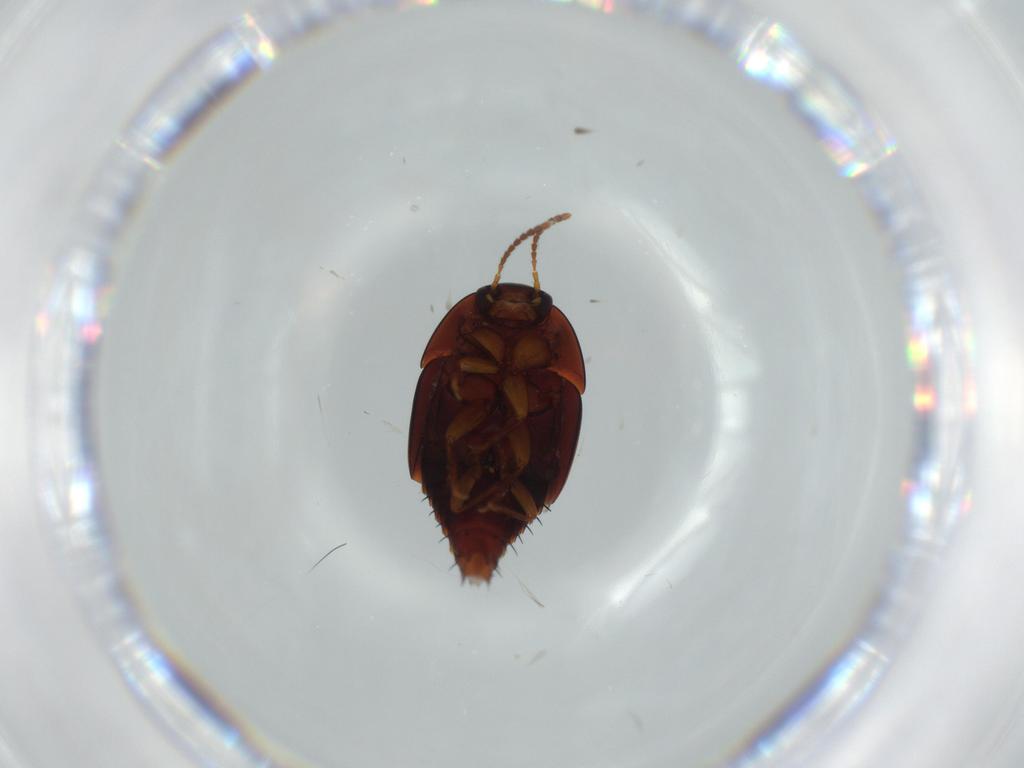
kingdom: Animalia
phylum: Arthropoda
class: Insecta
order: Coleoptera
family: Staphylinidae
